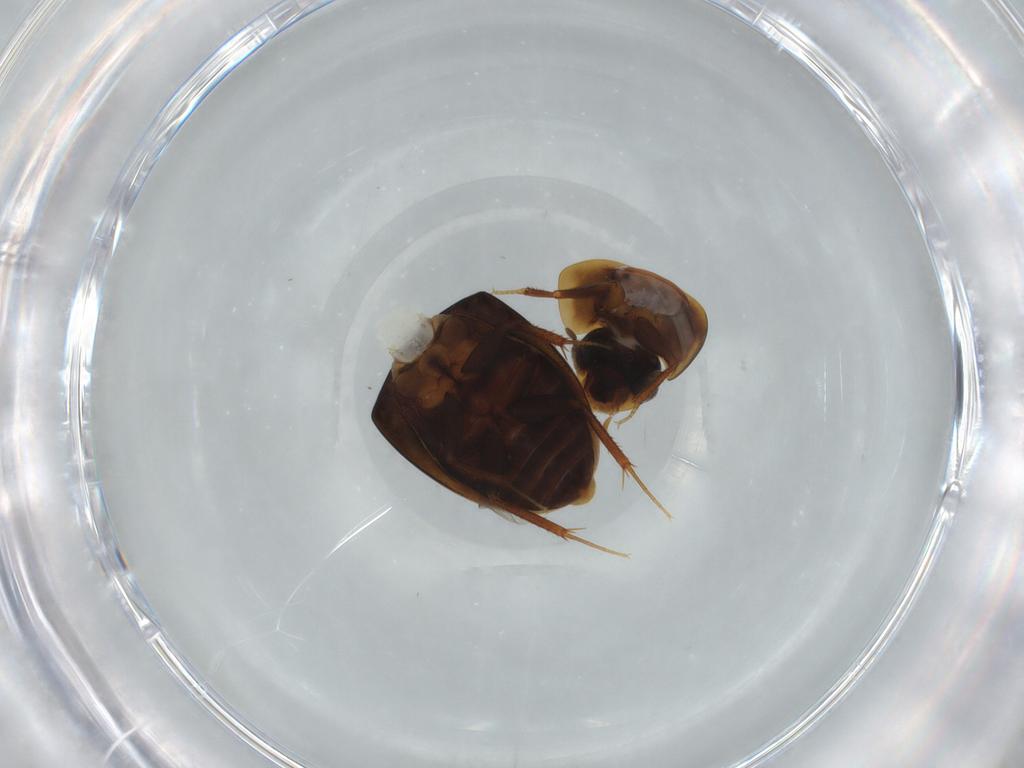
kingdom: Animalia
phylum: Arthropoda
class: Insecta
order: Coleoptera
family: Hydrophilidae
